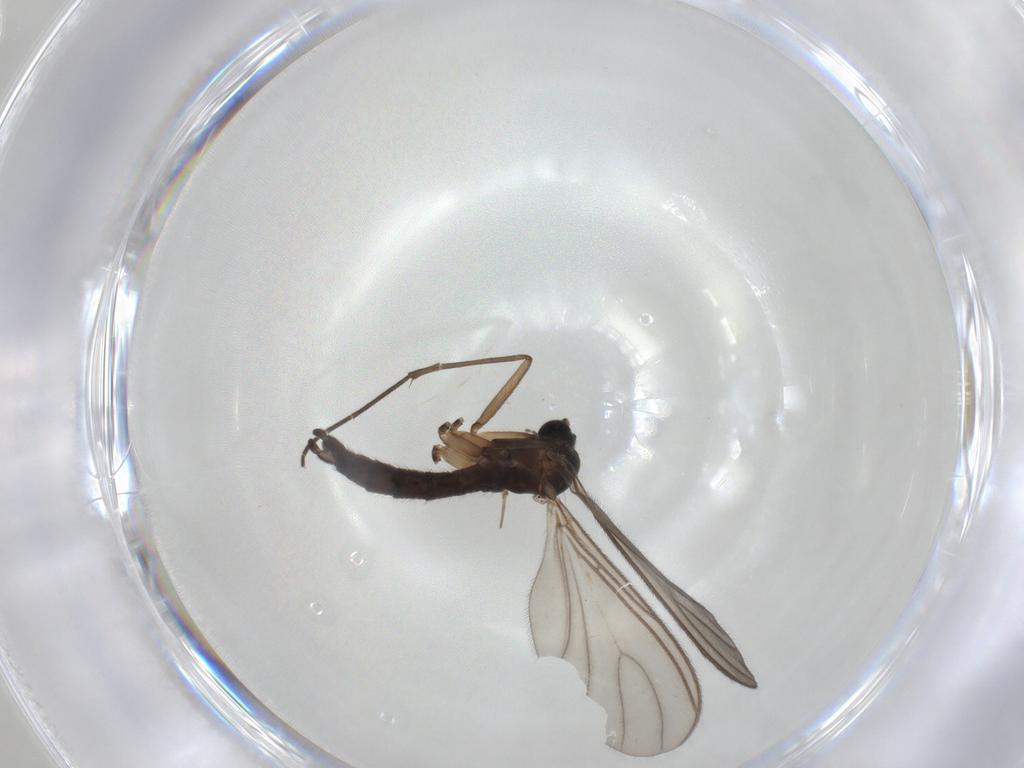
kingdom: Animalia
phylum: Arthropoda
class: Insecta
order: Diptera
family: Sciaridae
